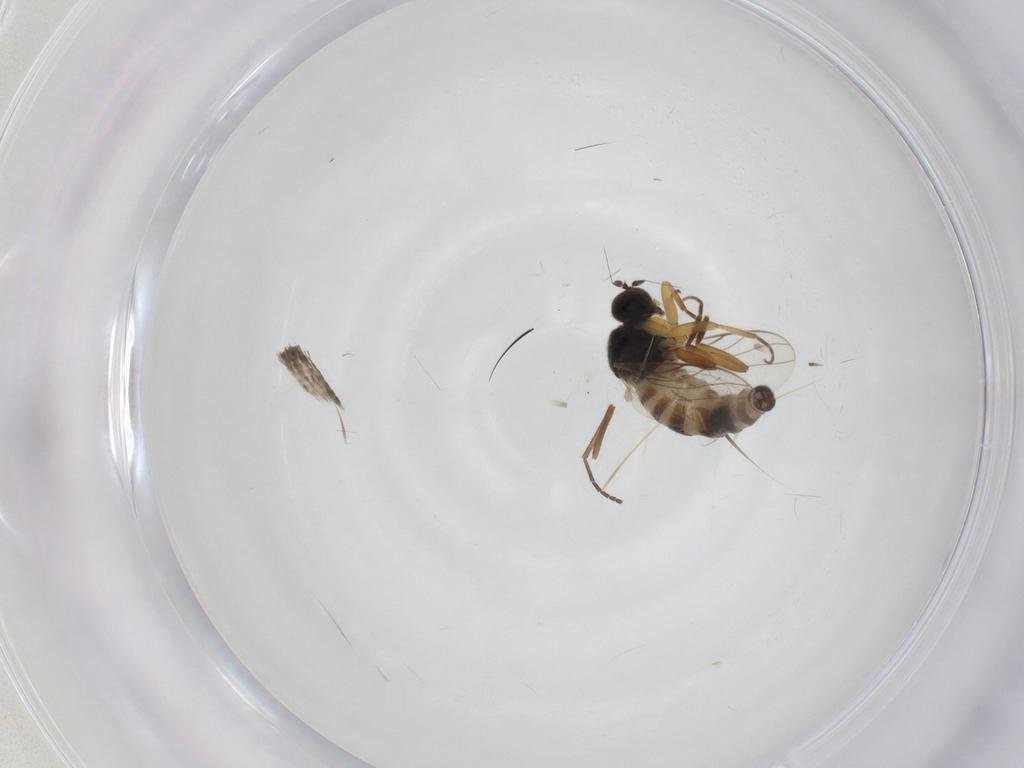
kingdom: Animalia
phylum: Arthropoda
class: Insecta
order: Diptera
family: Hybotidae
